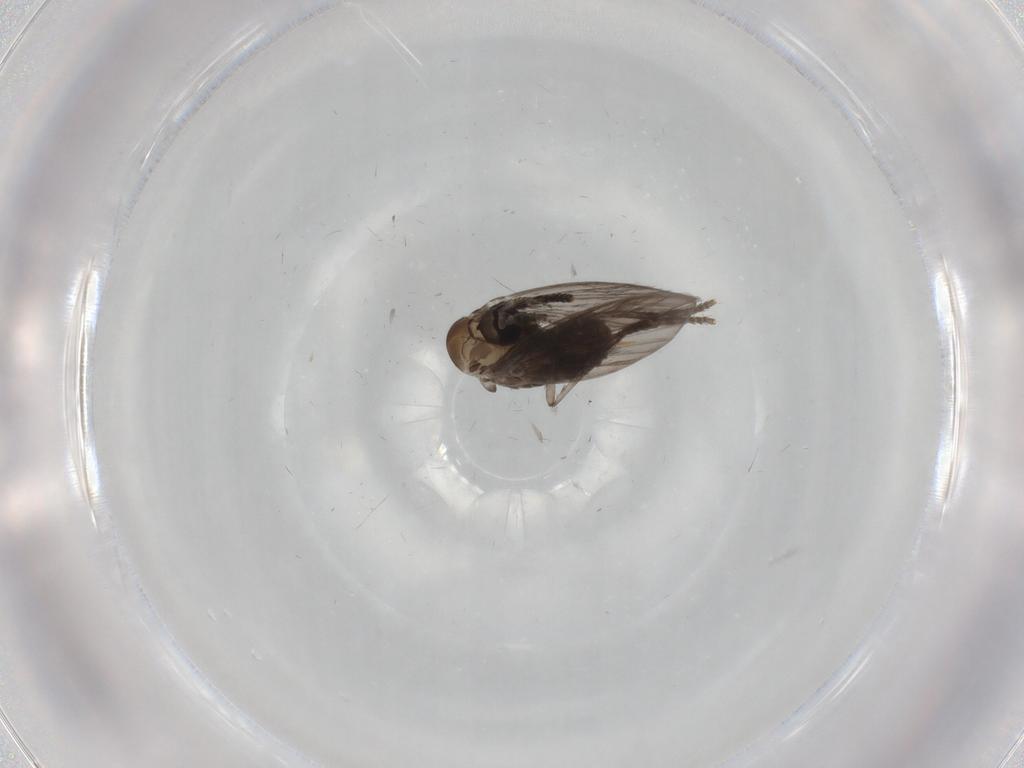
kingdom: Animalia
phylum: Arthropoda
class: Insecta
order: Diptera
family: Psychodidae
